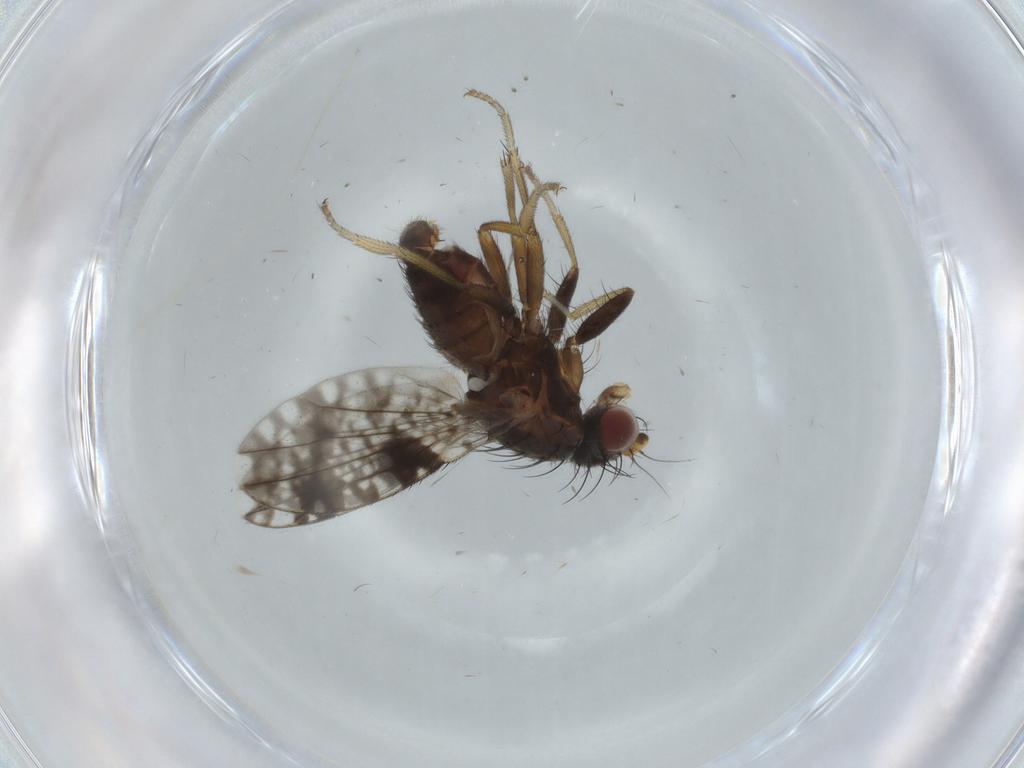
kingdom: Animalia
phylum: Arthropoda
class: Insecta
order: Diptera
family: Tephritidae
